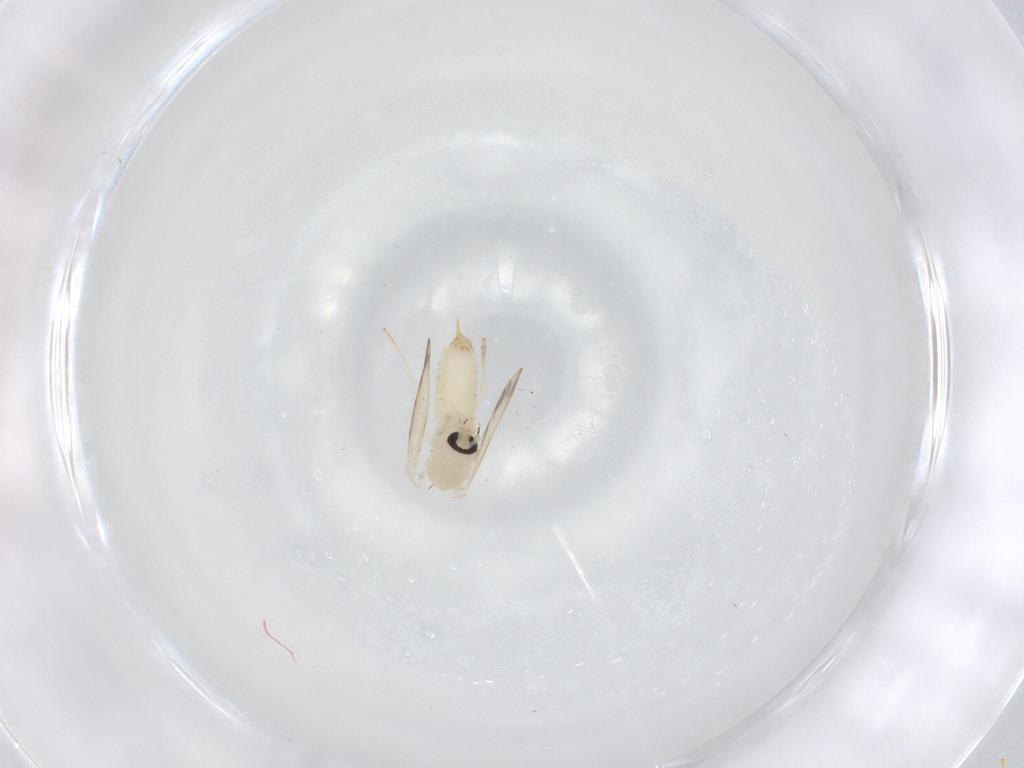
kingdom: Animalia
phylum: Arthropoda
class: Insecta
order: Diptera
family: Psychodidae
